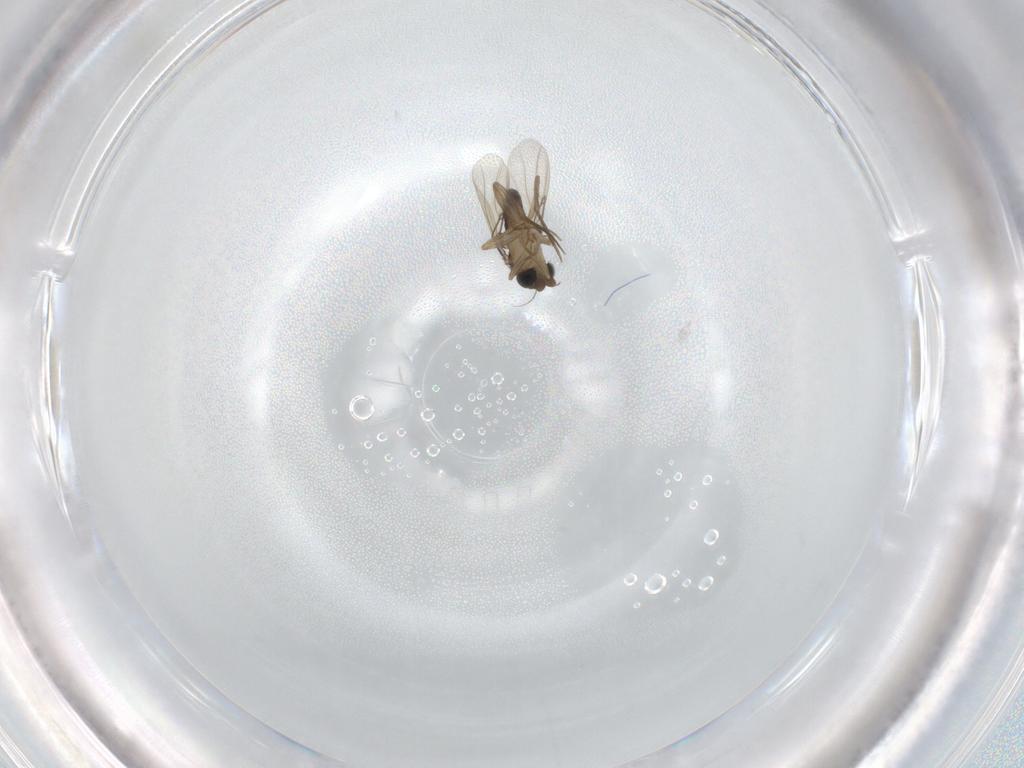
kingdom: Animalia
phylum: Arthropoda
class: Insecta
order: Diptera
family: Phoridae
